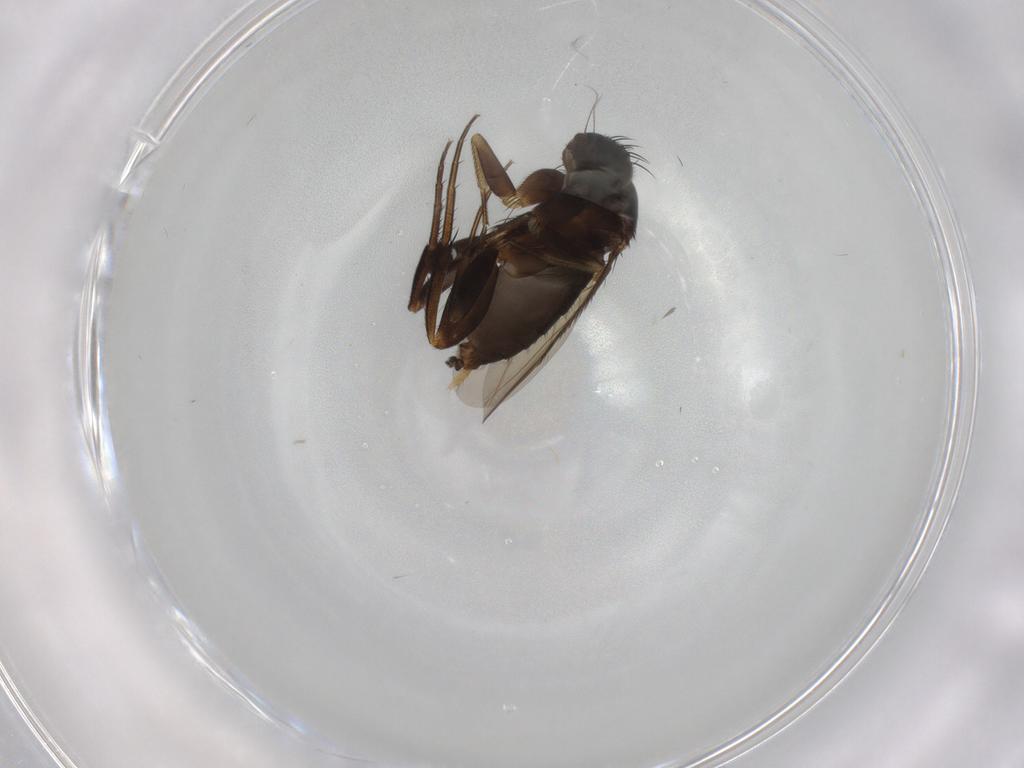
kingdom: Animalia
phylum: Arthropoda
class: Insecta
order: Diptera
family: Phoridae
